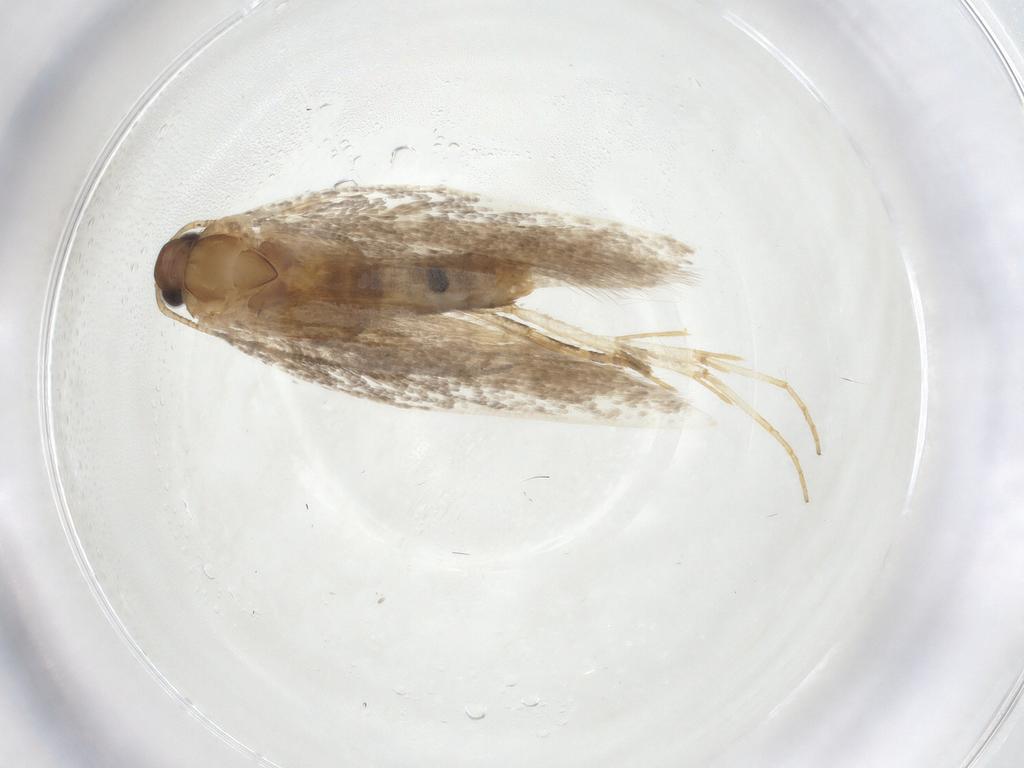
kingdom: Animalia
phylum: Arthropoda
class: Insecta
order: Lepidoptera
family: Gelechiidae
